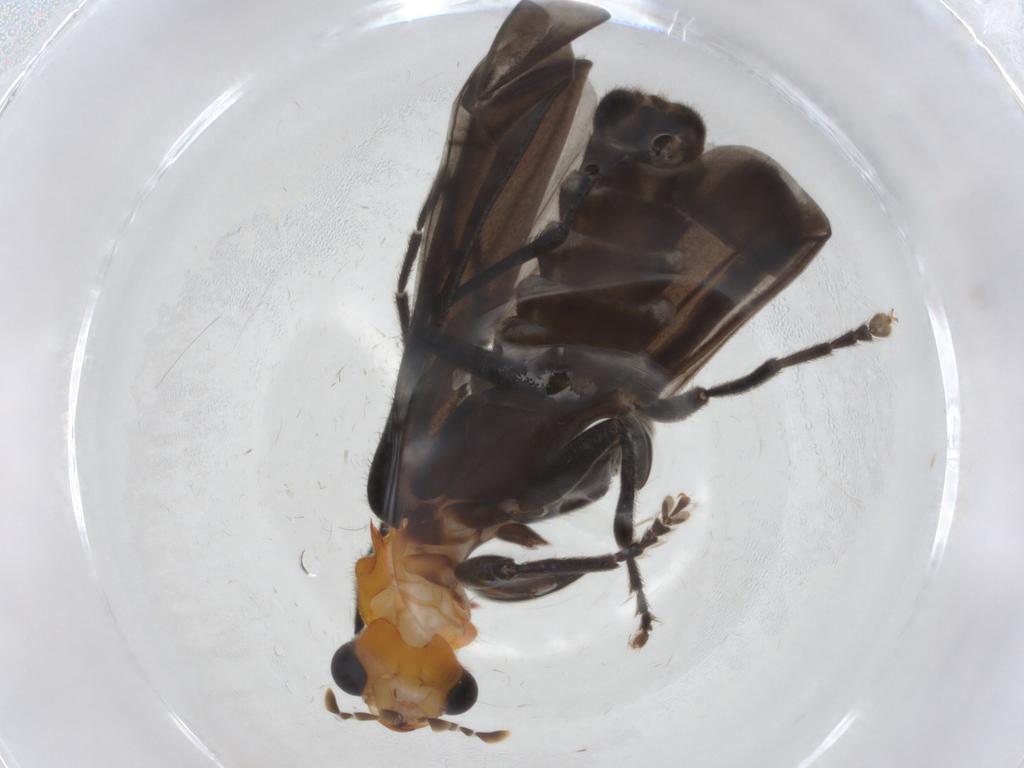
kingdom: Animalia
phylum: Arthropoda
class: Insecta
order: Coleoptera
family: Cantharidae
